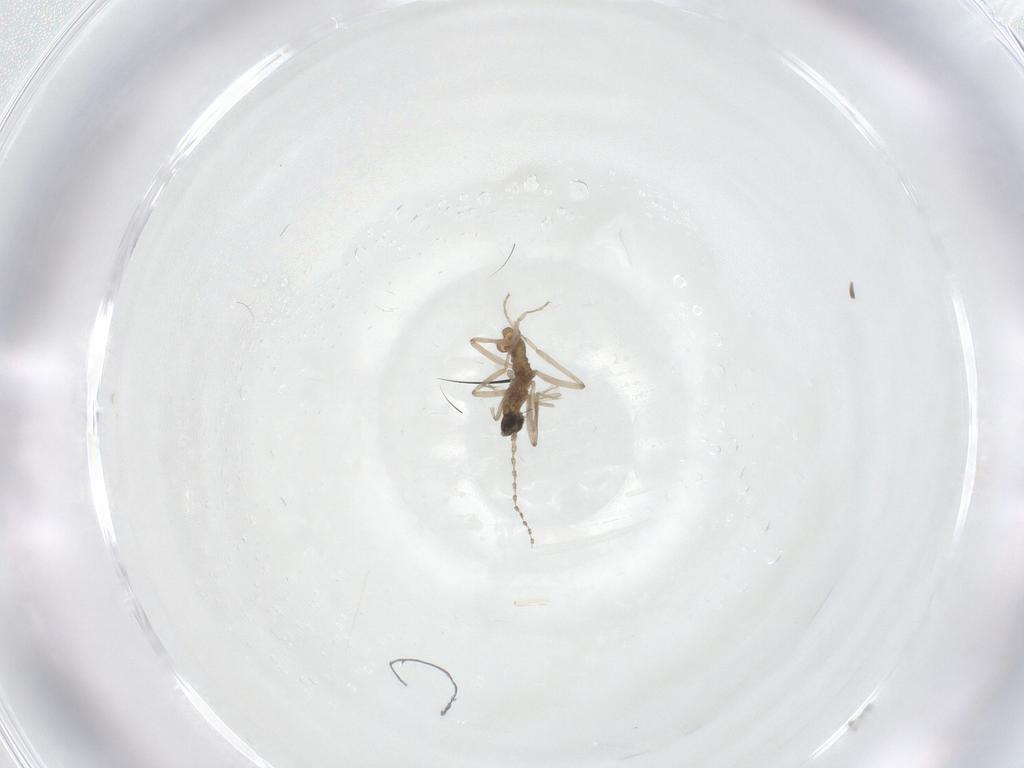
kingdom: Animalia
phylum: Arthropoda
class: Insecta
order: Diptera
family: Cecidomyiidae
